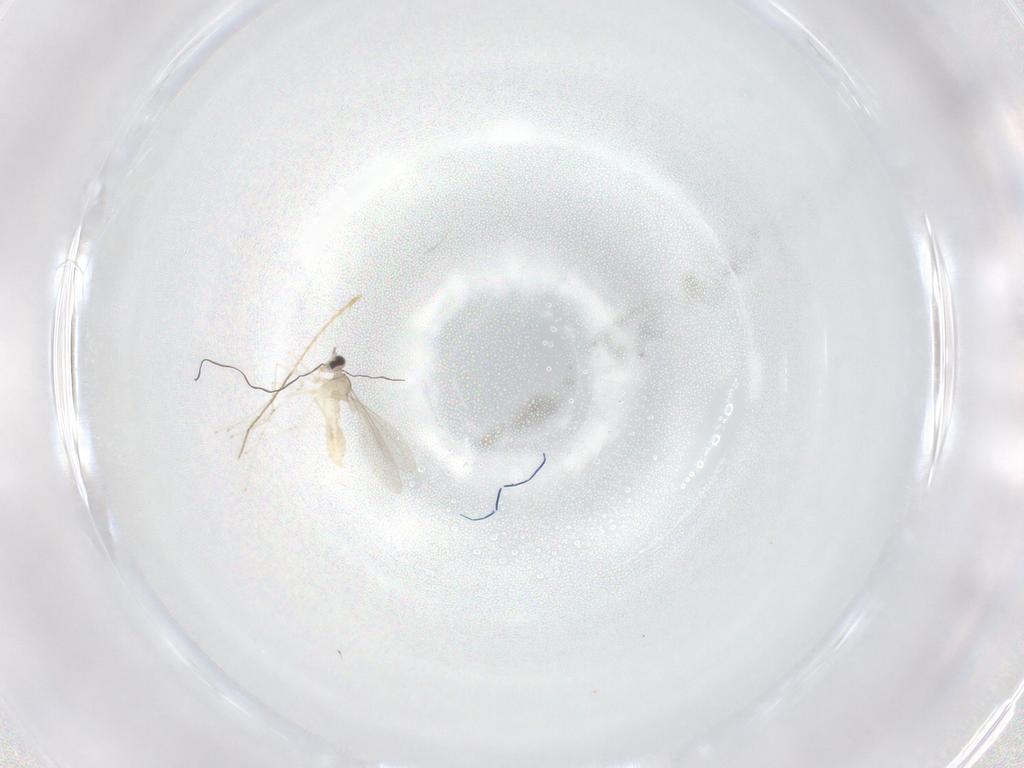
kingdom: Animalia
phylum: Arthropoda
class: Insecta
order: Diptera
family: Cecidomyiidae
